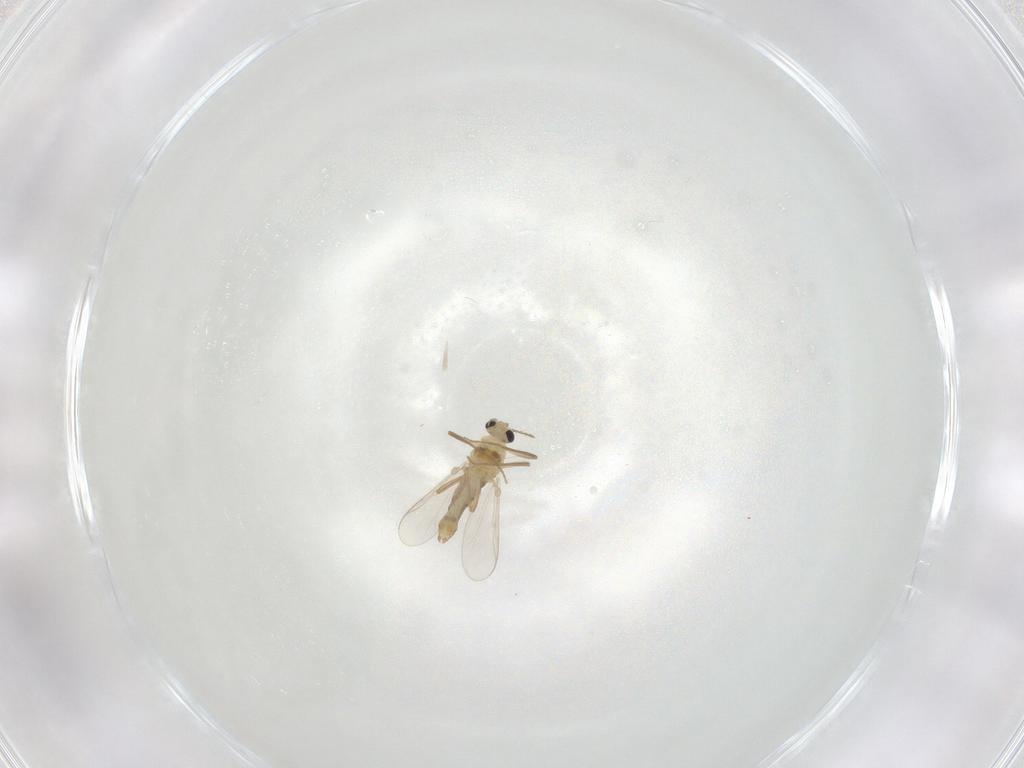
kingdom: Animalia
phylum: Arthropoda
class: Insecta
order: Diptera
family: Chironomidae
